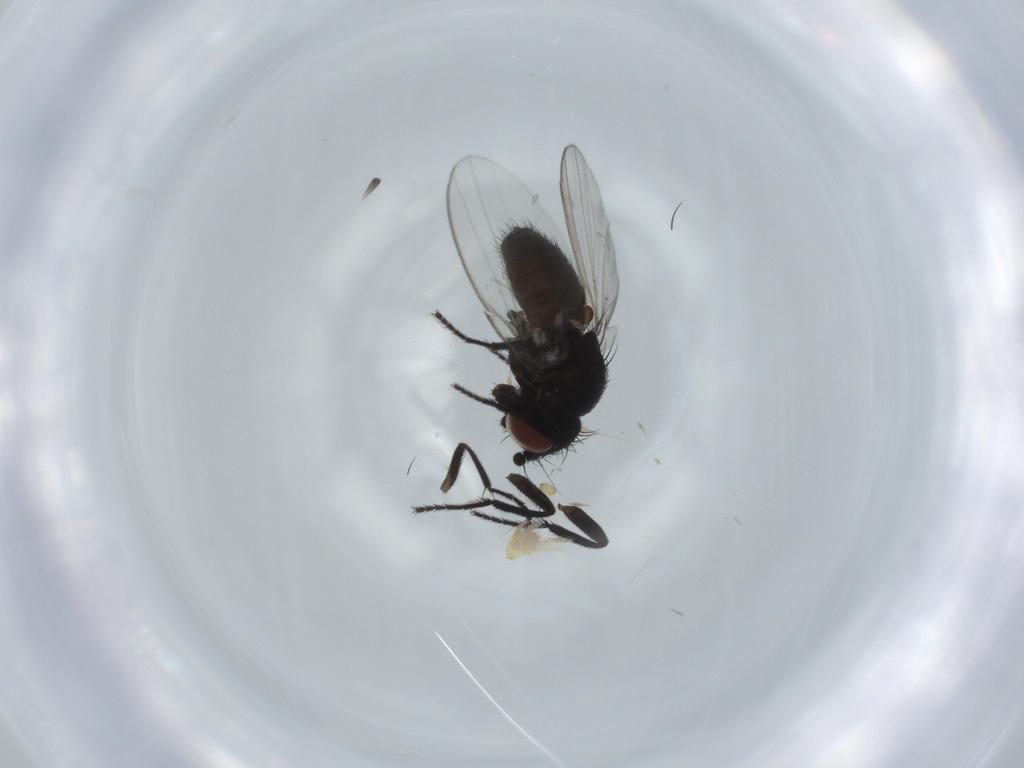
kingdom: Animalia
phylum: Arthropoda
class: Insecta
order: Diptera
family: Milichiidae
